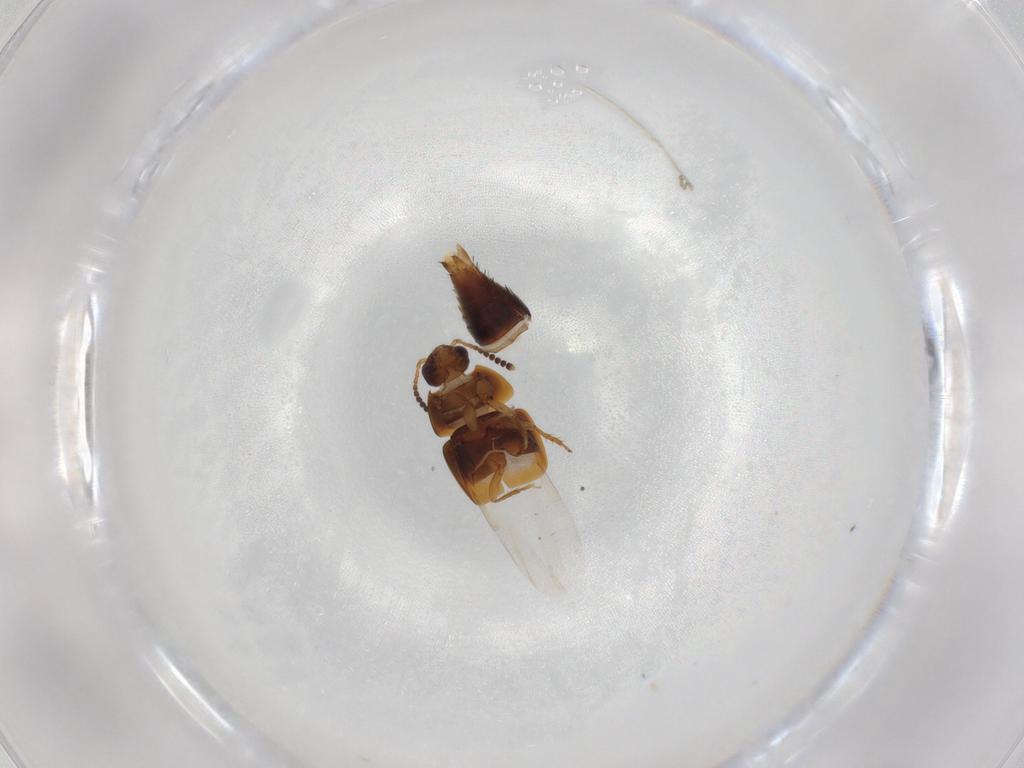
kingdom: Animalia
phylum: Arthropoda
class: Insecta
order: Coleoptera
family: Staphylinidae
